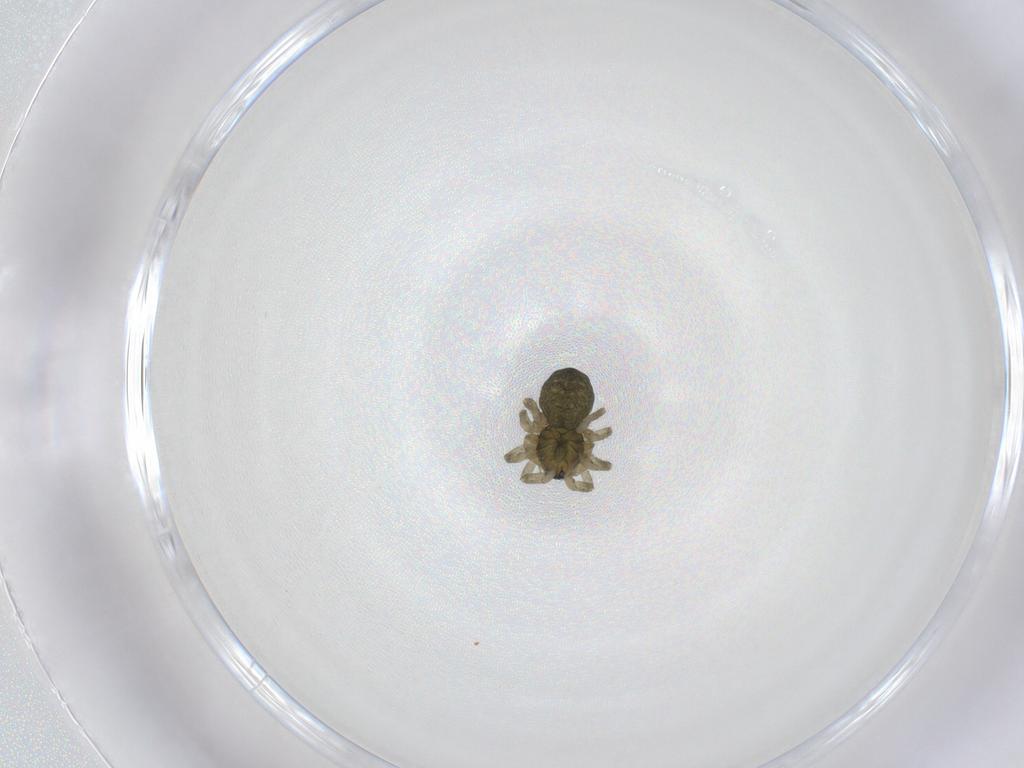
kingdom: Animalia
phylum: Arthropoda
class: Arachnida
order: Araneae
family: Linyphiidae
